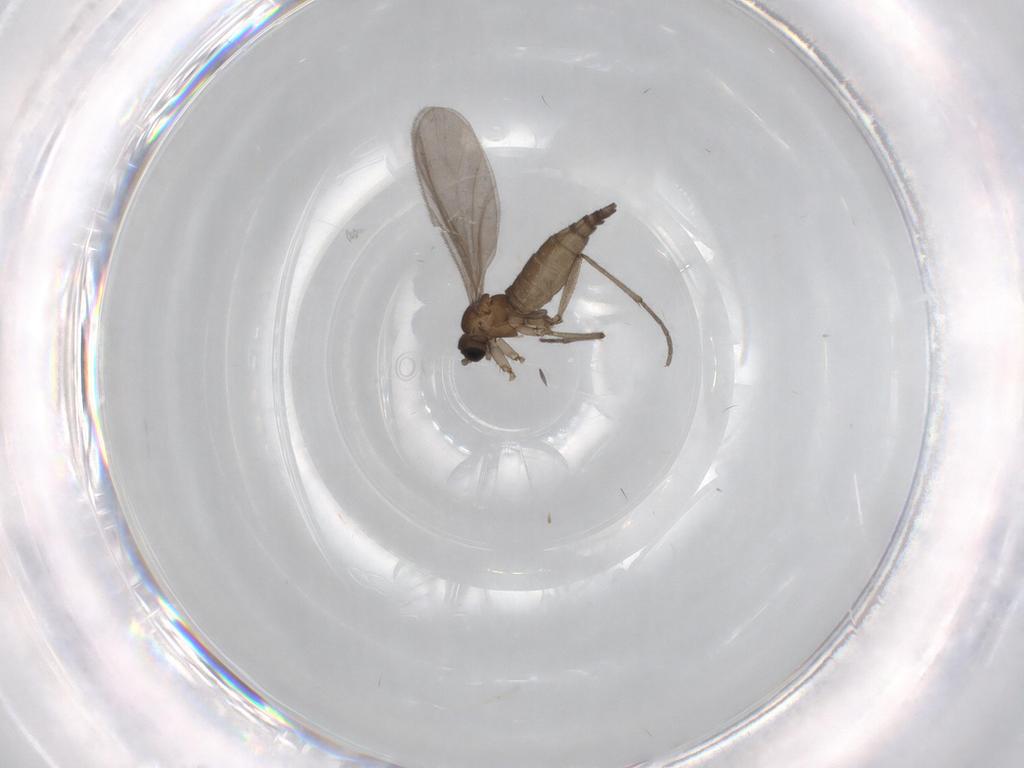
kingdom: Animalia
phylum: Arthropoda
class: Insecta
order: Diptera
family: Sciaridae
